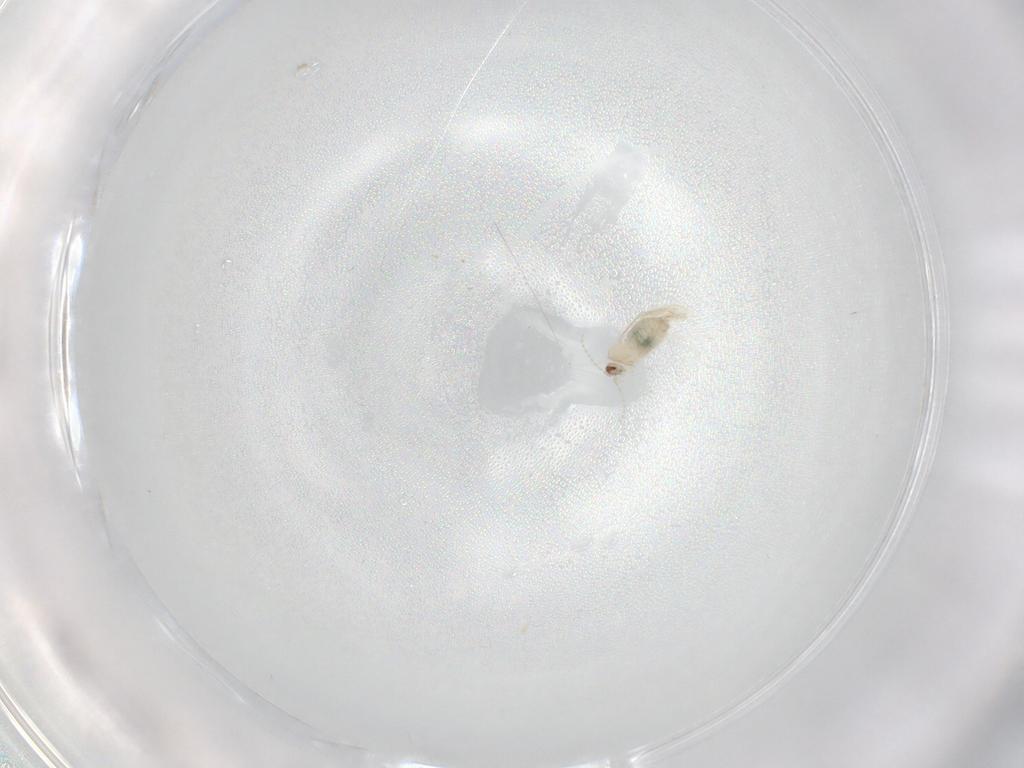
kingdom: Animalia
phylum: Arthropoda
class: Insecta
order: Diptera
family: Cecidomyiidae
